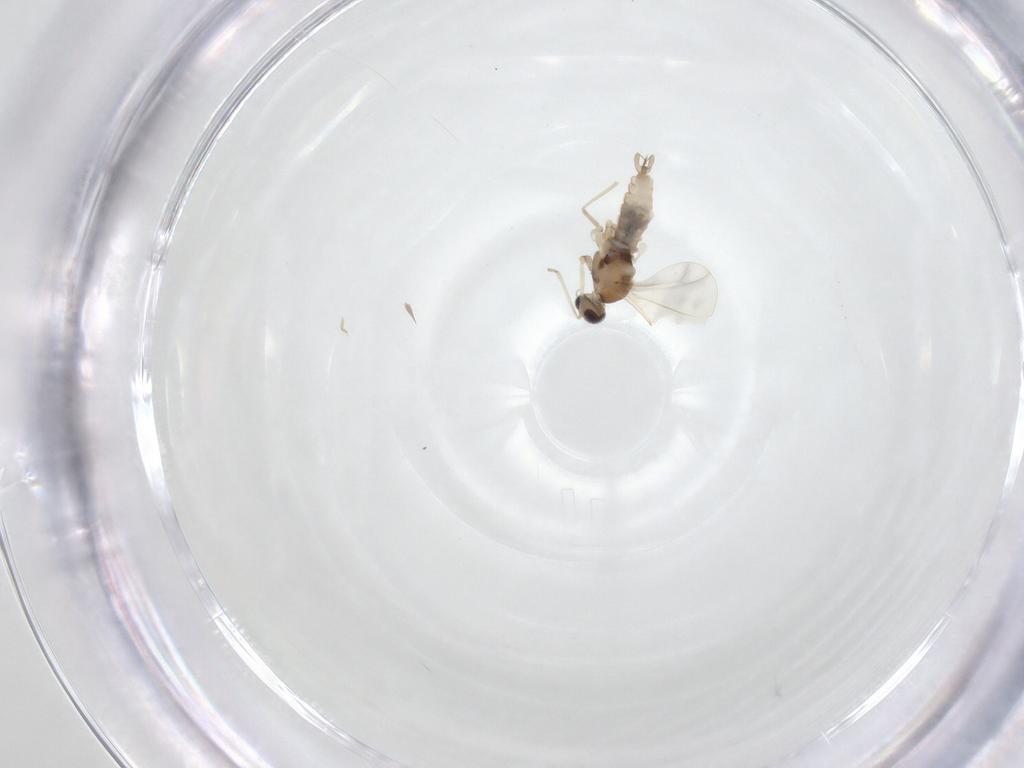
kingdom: Animalia
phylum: Arthropoda
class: Insecta
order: Diptera
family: Cecidomyiidae
